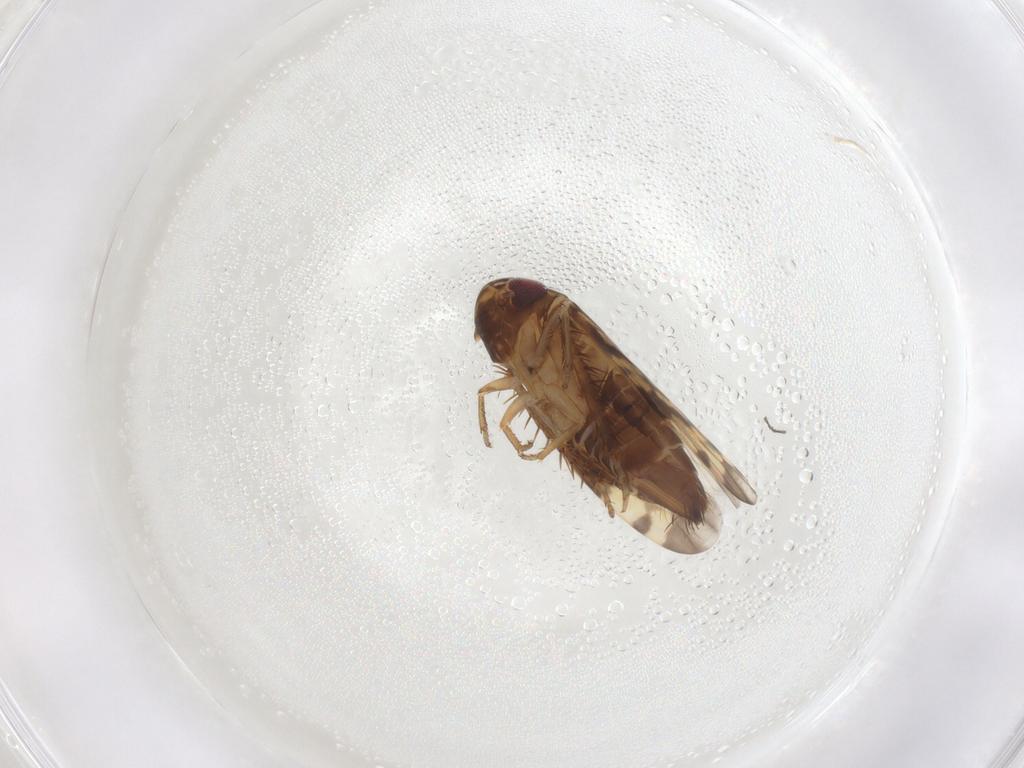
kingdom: Animalia
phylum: Arthropoda
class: Insecta
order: Hemiptera
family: Cicadellidae
